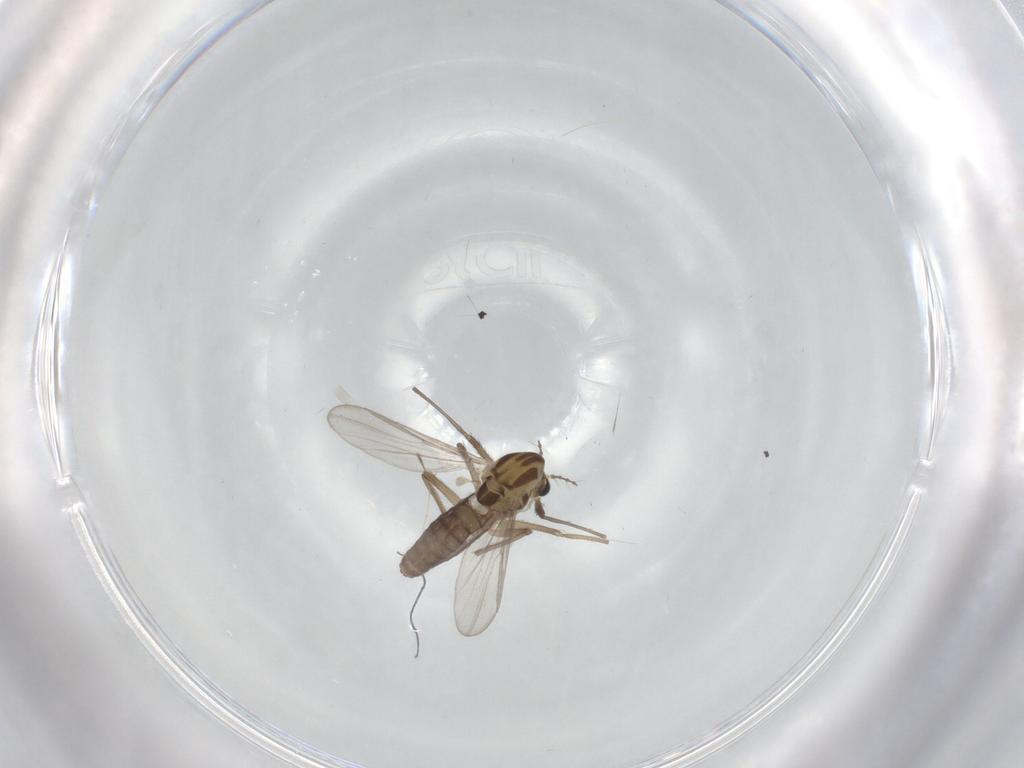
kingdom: Animalia
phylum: Arthropoda
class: Insecta
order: Diptera
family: Chironomidae
